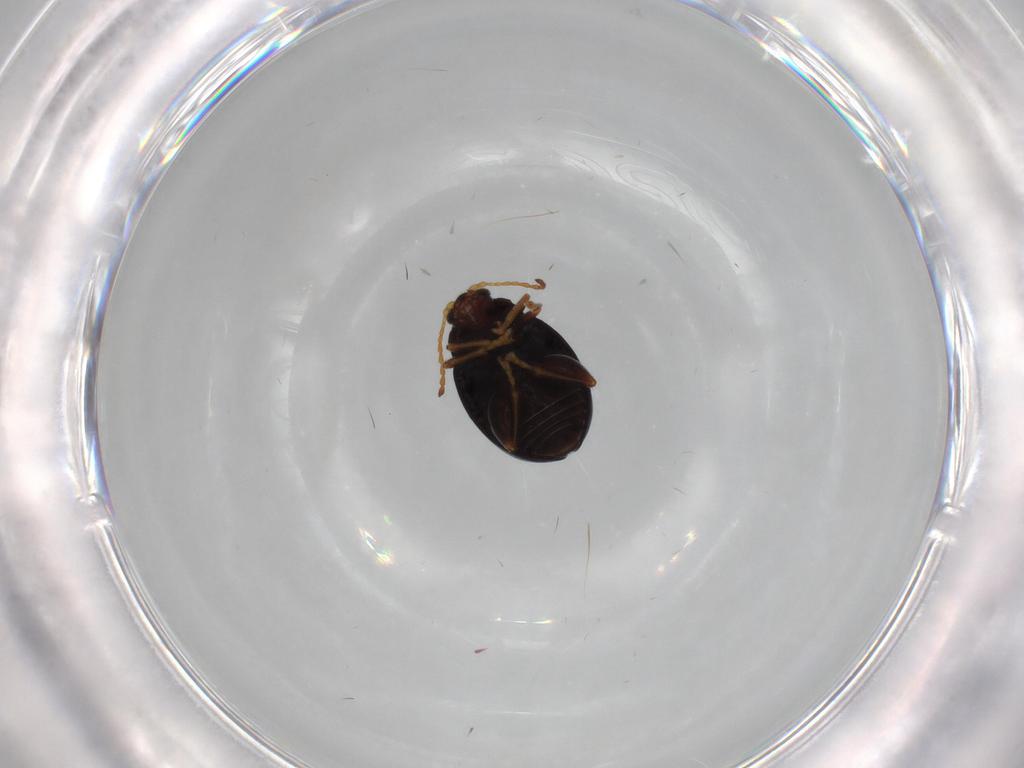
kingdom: Animalia
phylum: Arthropoda
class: Insecta
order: Coleoptera
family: Chrysomelidae
